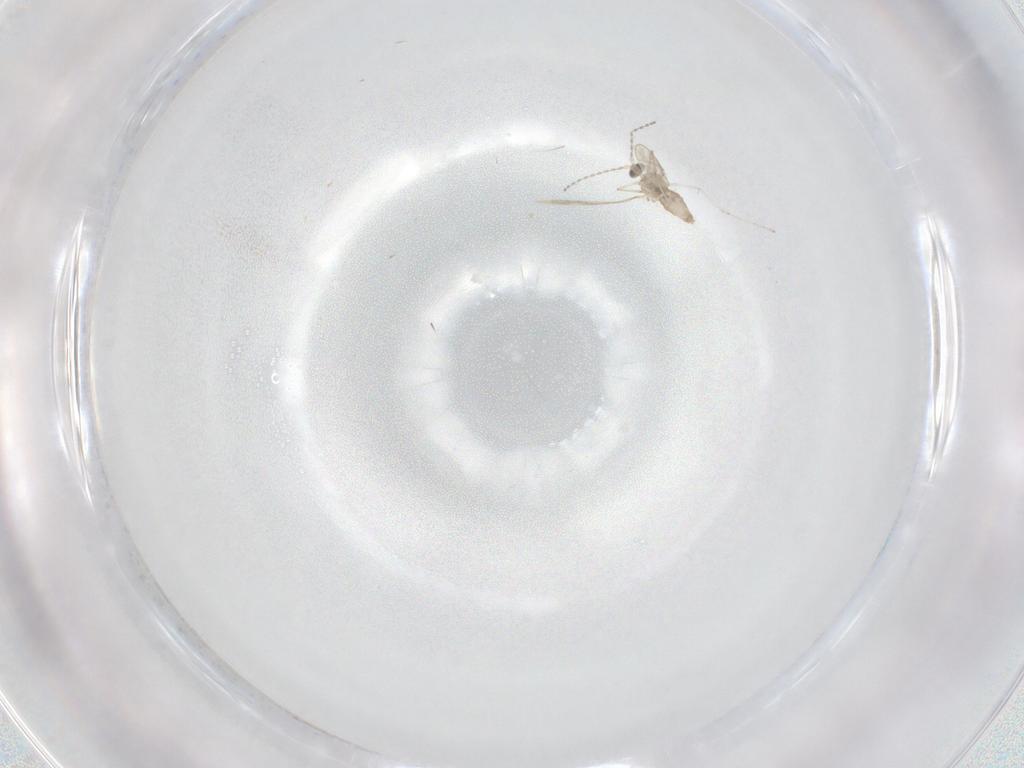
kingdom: Animalia
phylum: Arthropoda
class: Insecta
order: Diptera
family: Cecidomyiidae
